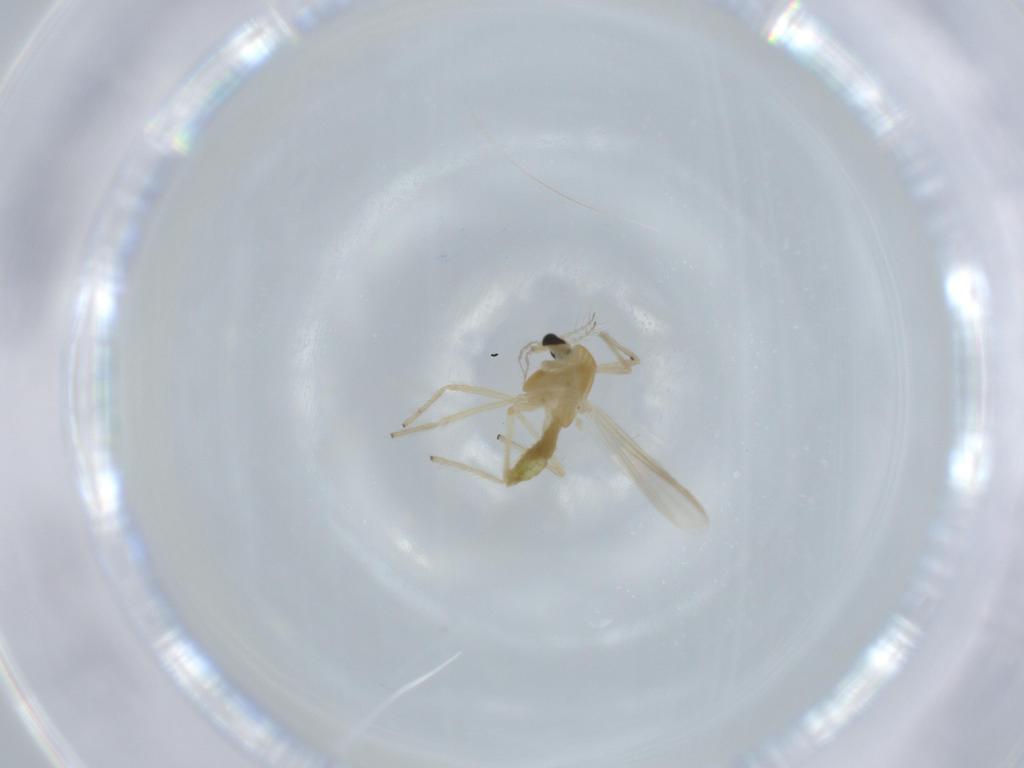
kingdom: Animalia
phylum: Arthropoda
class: Insecta
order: Diptera
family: Chironomidae
